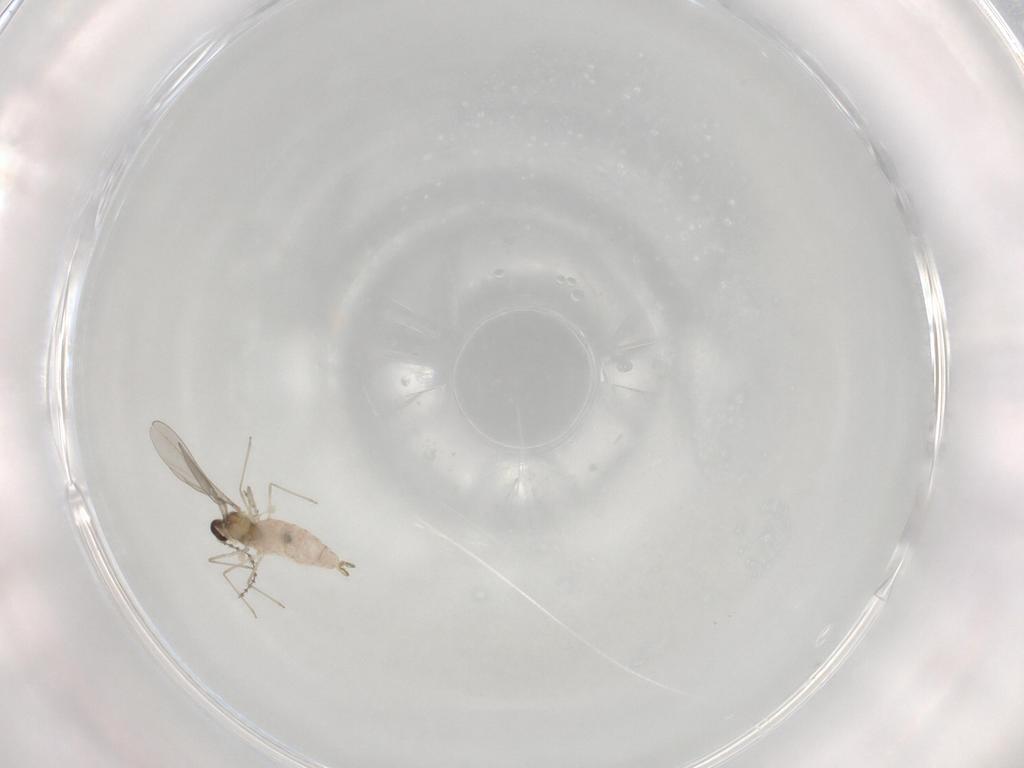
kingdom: Animalia
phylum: Arthropoda
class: Insecta
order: Diptera
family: Cecidomyiidae
